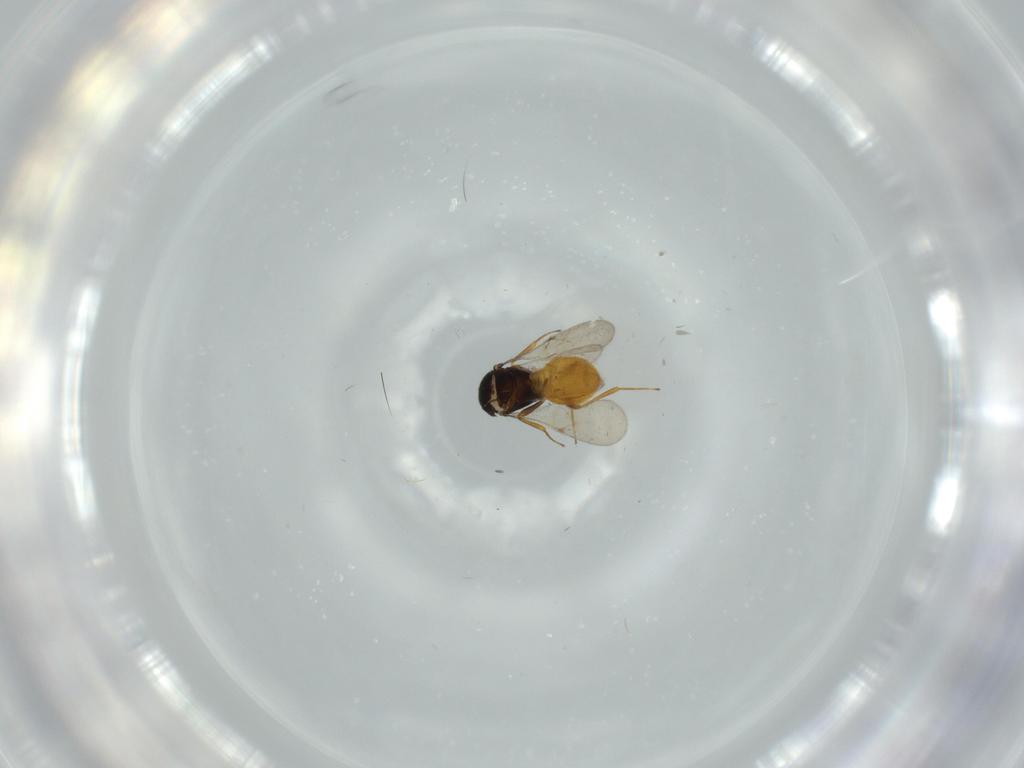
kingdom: Animalia
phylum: Arthropoda
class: Insecta
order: Hymenoptera
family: Scelionidae
